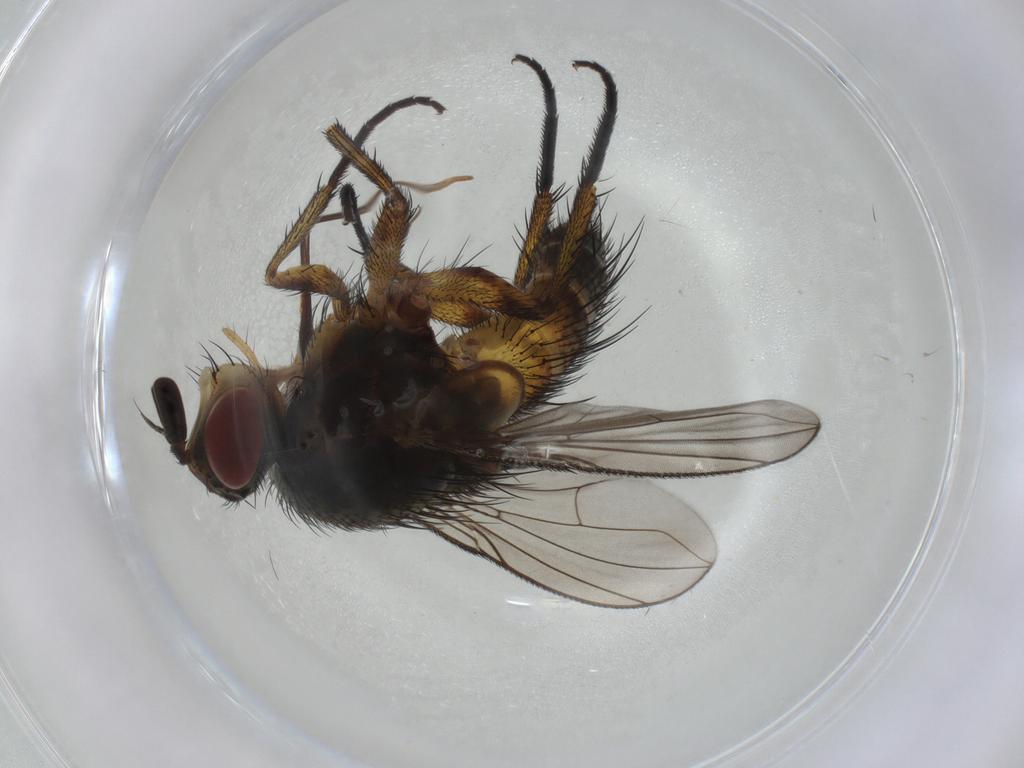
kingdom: Animalia
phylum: Arthropoda
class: Insecta
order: Diptera
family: Tachinidae
